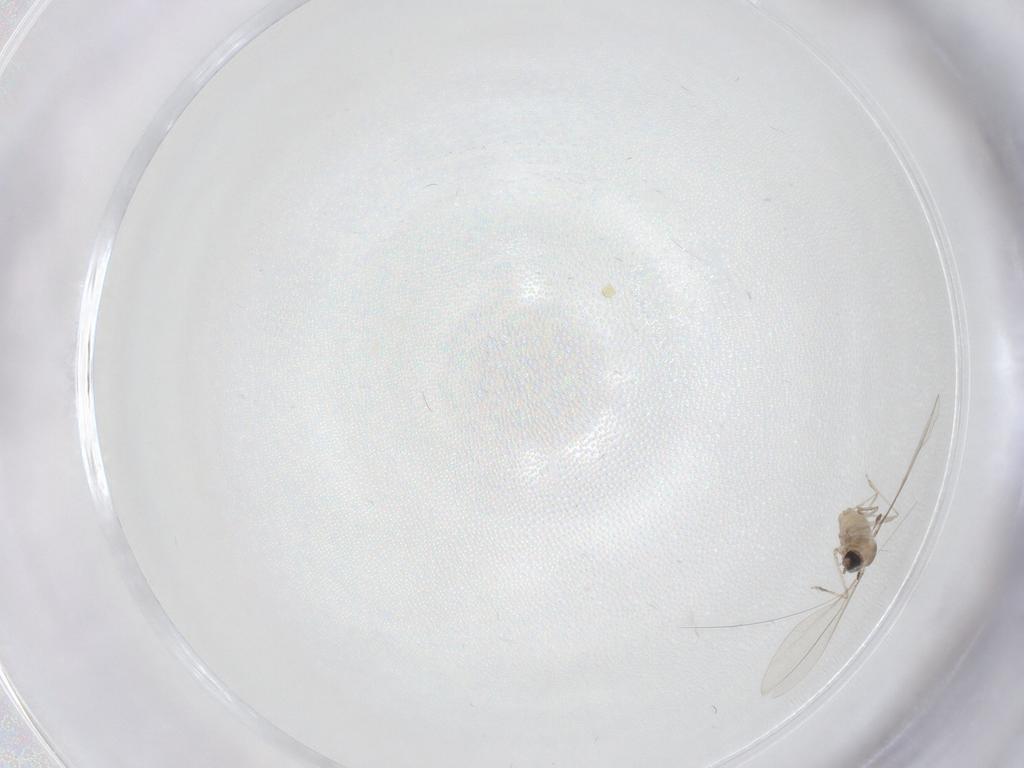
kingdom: Animalia
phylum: Arthropoda
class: Insecta
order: Diptera
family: Cecidomyiidae
